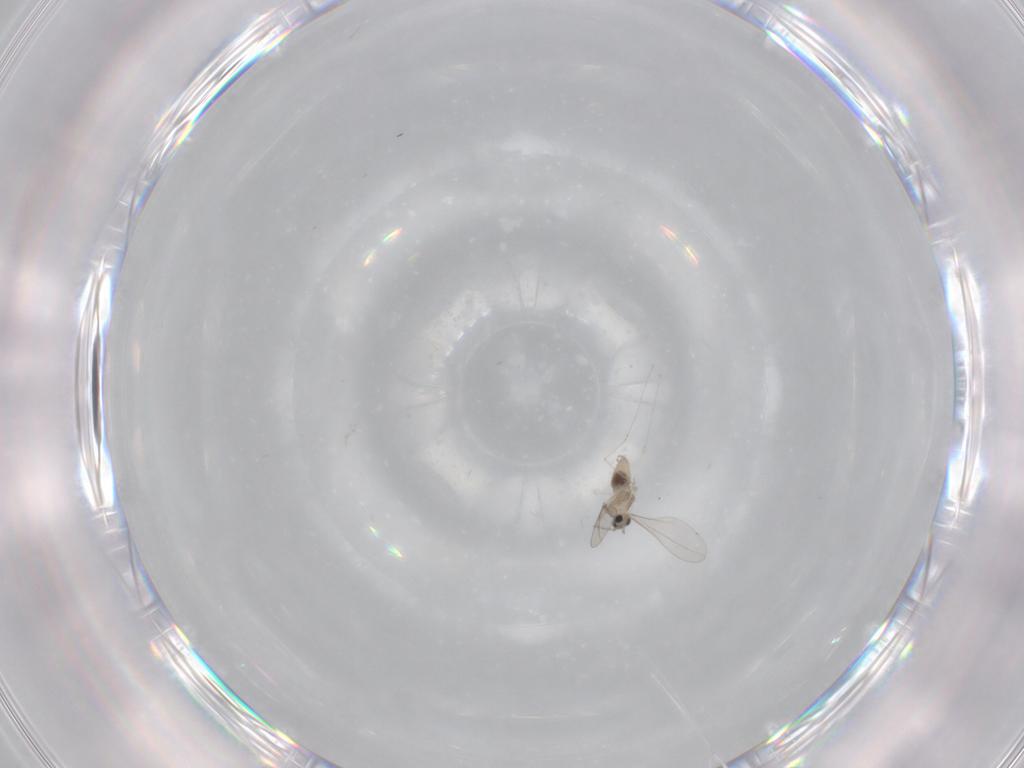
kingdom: Animalia
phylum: Arthropoda
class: Insecta
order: Diptera
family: Cecidomyiidae
